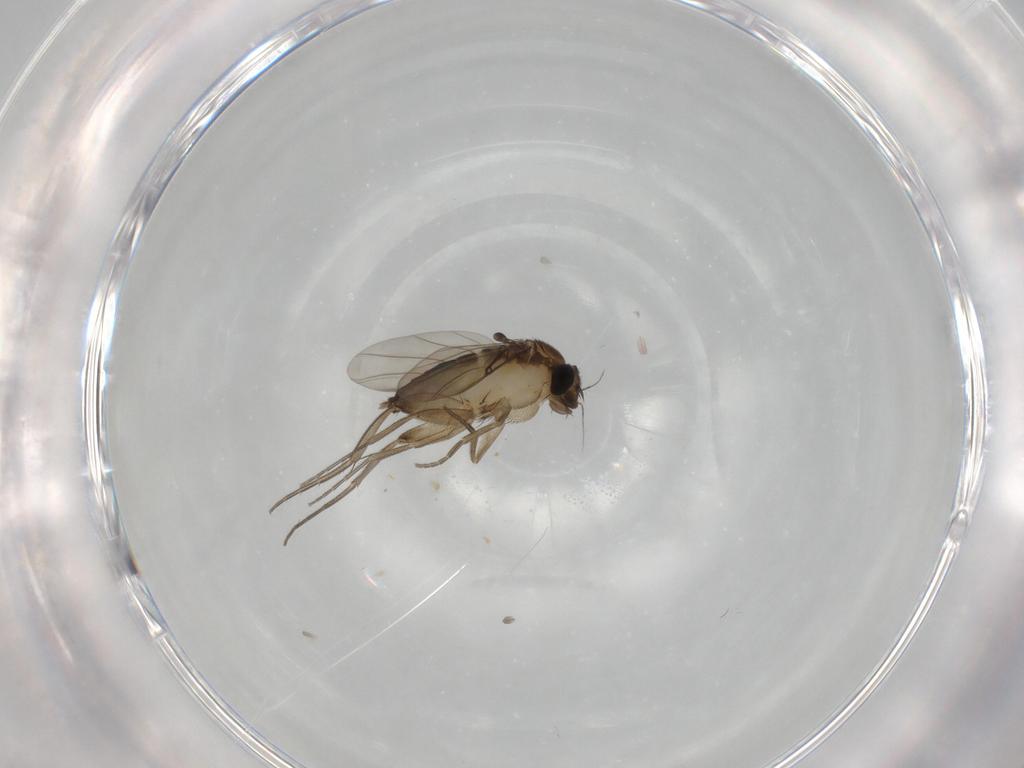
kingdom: Animalia
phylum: Arthropoda
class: Insecta
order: Diptera
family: Phoridae
